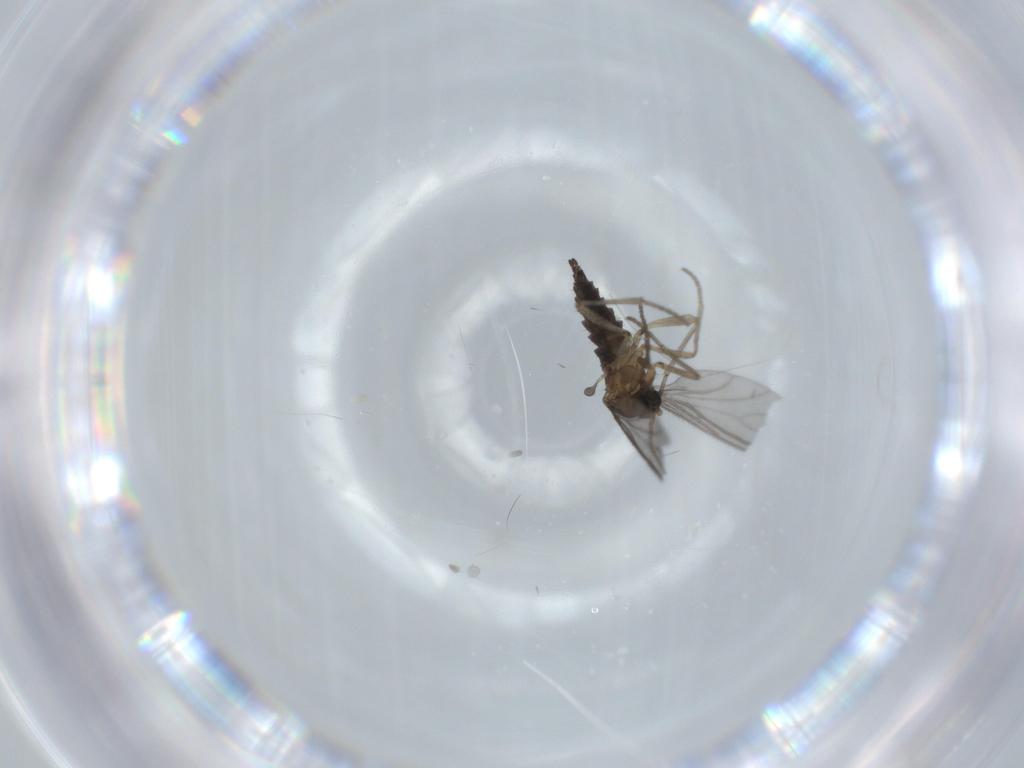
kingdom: Animalia
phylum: Arthropoda
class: Insecta
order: Diptera
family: Sciaridae
